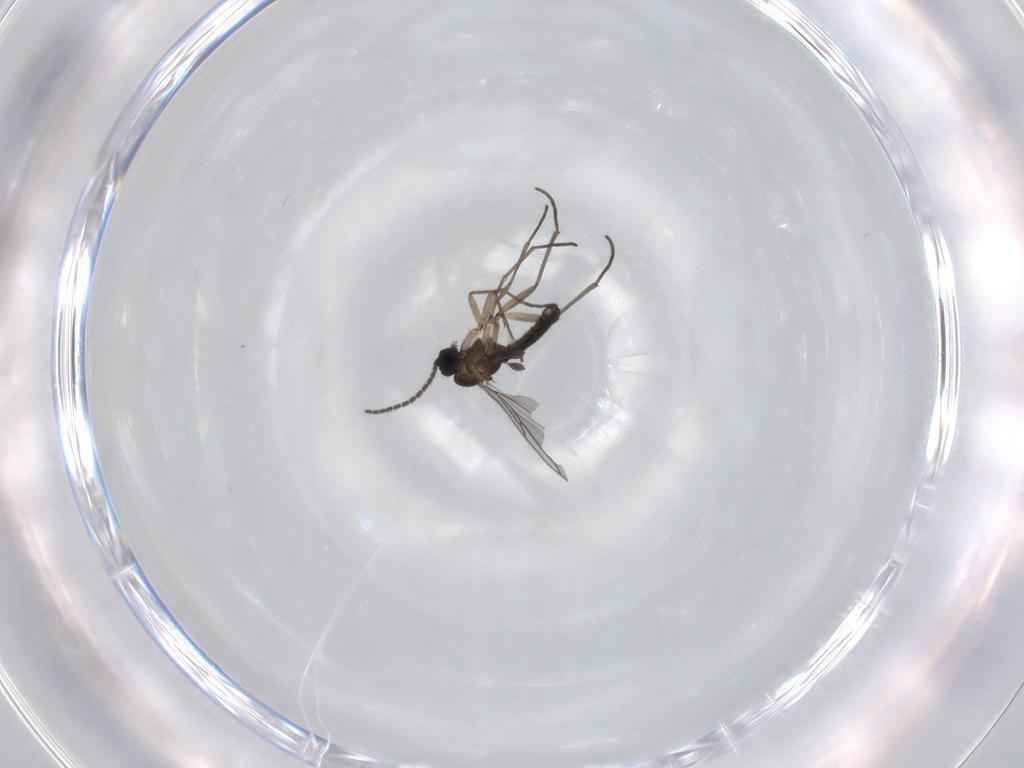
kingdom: Animalia
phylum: Arthropoda
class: Insecta
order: Diptera
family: Sciaridae
